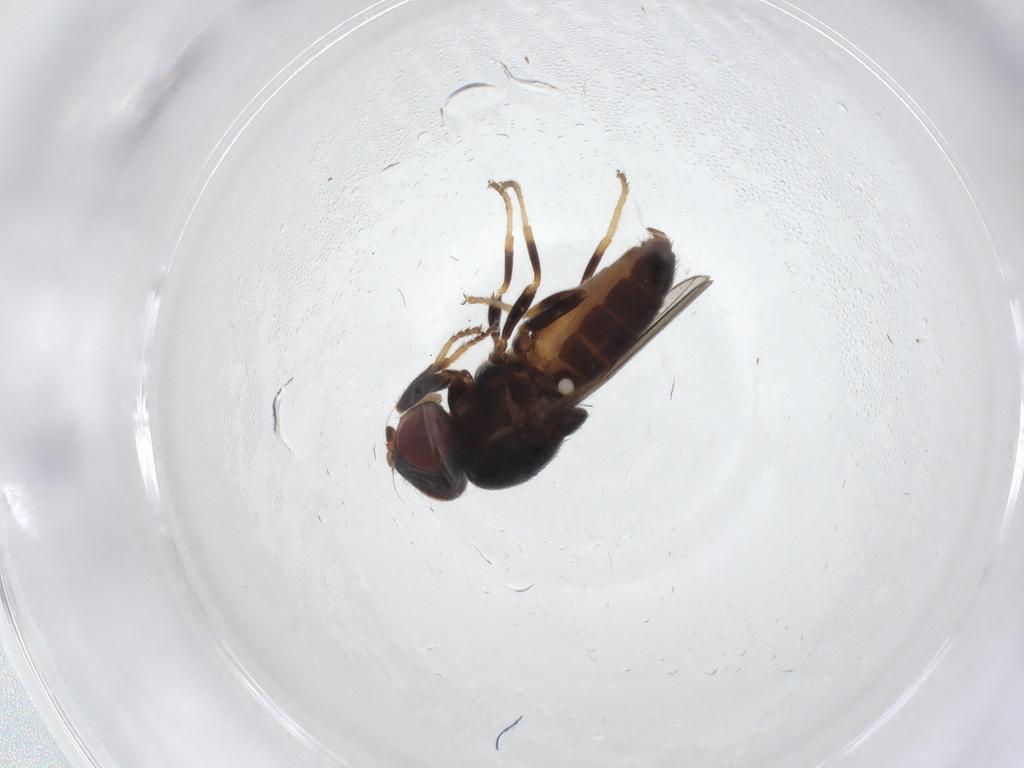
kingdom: Animalia
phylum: Arthropoda
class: Insecta
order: Diptera
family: Chloropidae
